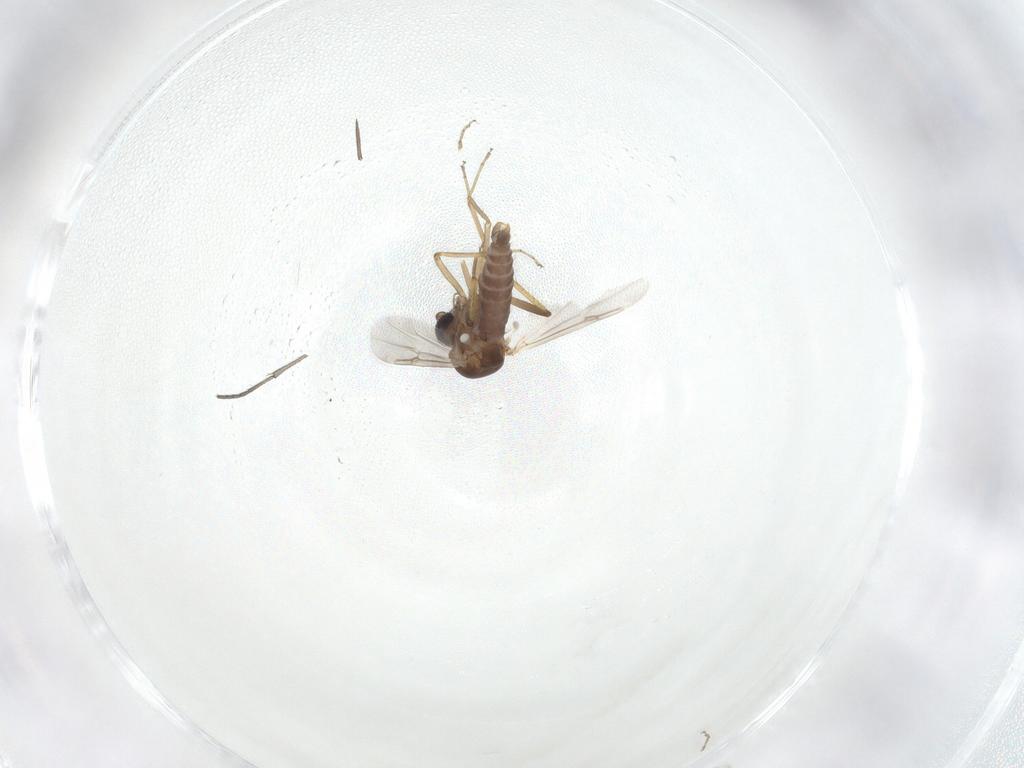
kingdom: Animalia
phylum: Arthropoda
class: Insecta
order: Diptera
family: Ceratopogonidae
